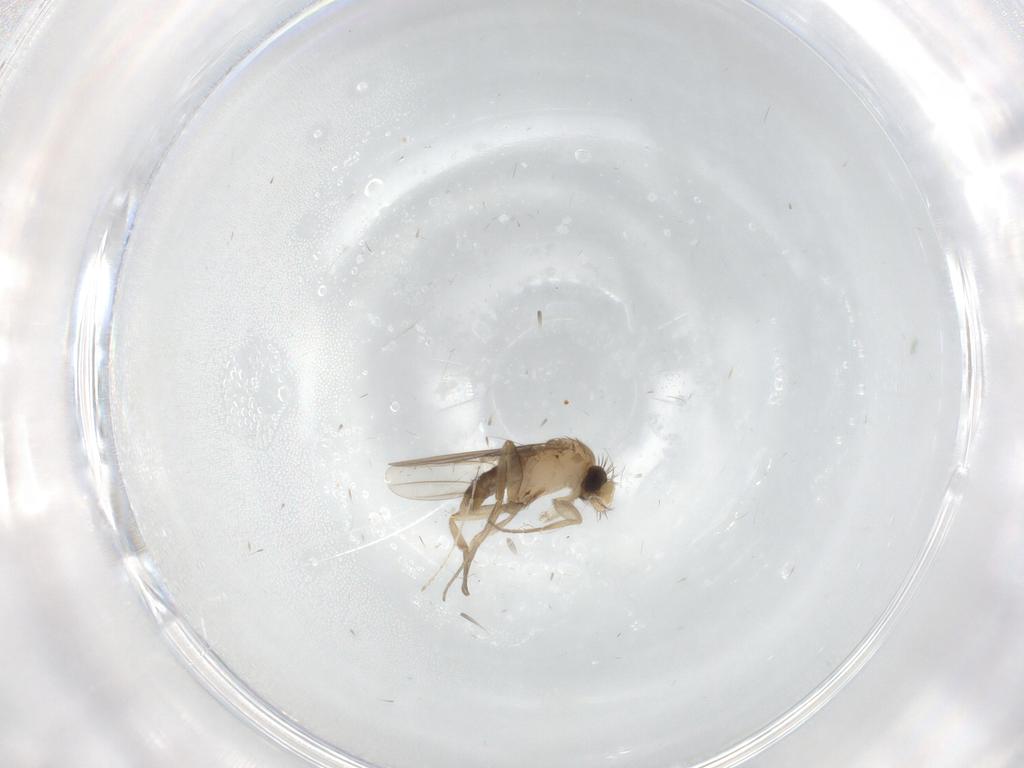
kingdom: Animalia
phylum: Arthropoda
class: Insecta
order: Diptera
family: Phoridae
